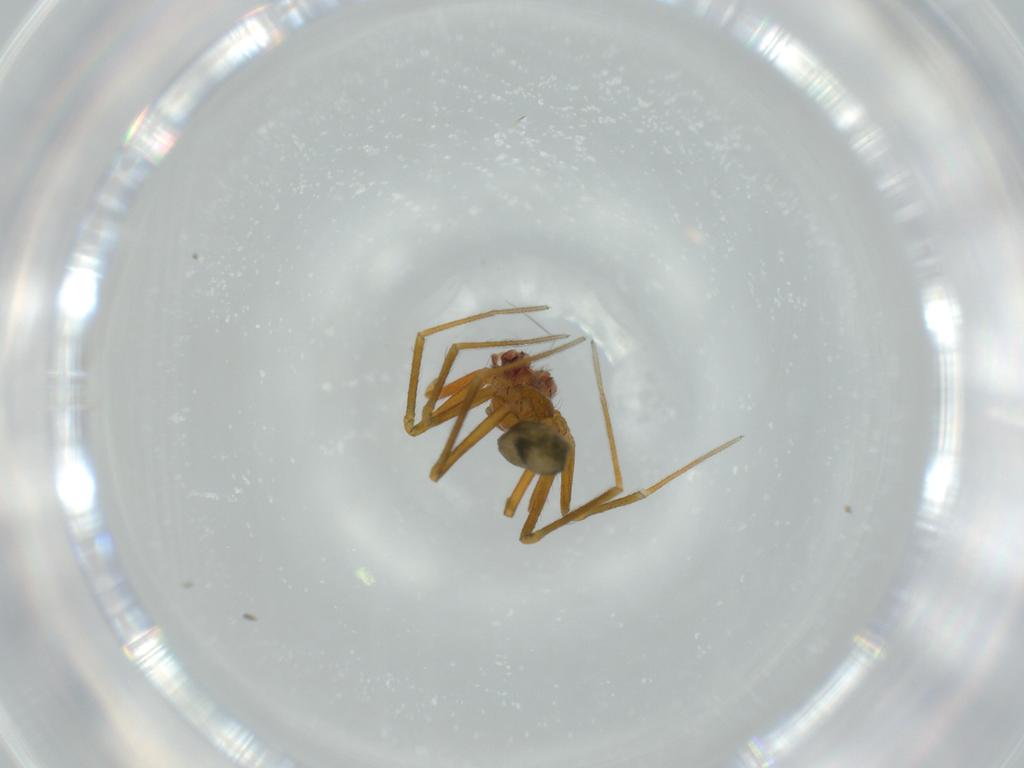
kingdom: Animalia
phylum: Arthropoda
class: Arachnida
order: Araneae
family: Linyphiidae
